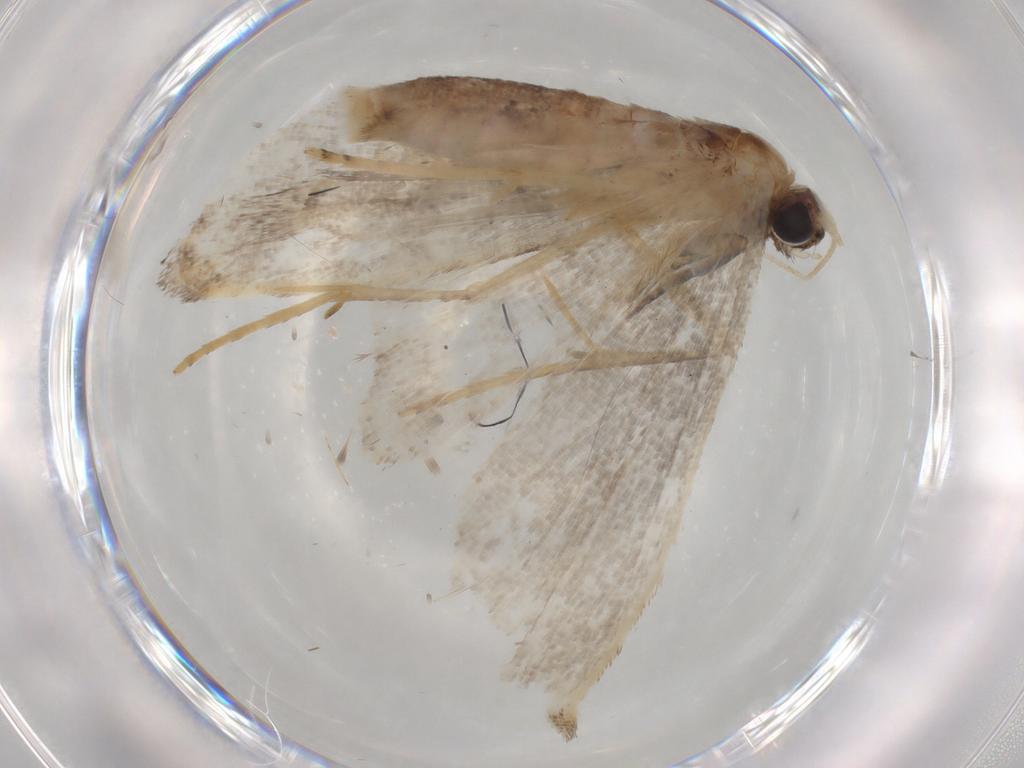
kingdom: Animalia
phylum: Arthropoda
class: Insecta
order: Lepidoptera
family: Noctuidae
